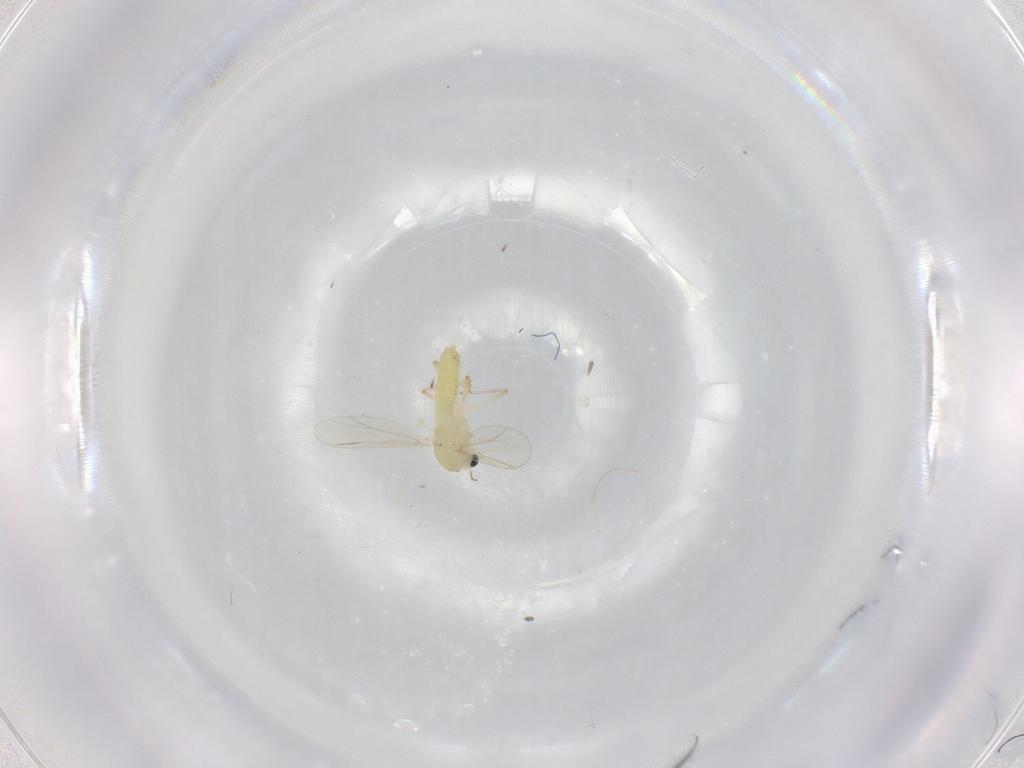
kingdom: Animalia
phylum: Arthropoda
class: Insecta
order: Diptera
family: Chironomidae
